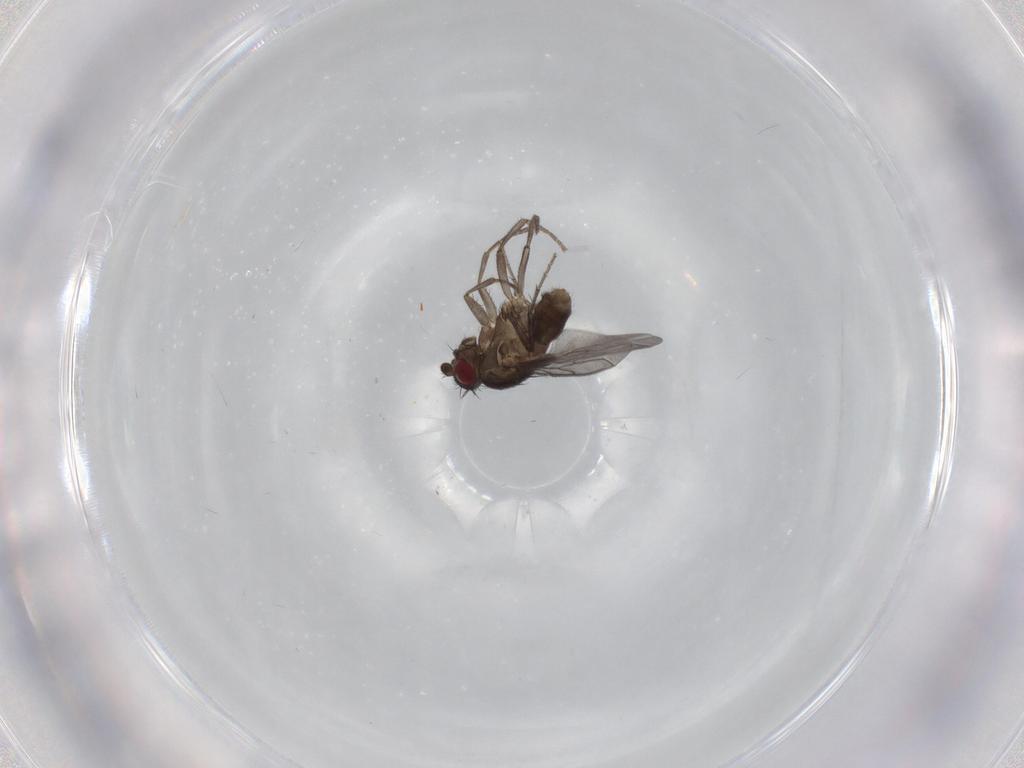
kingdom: Animalia
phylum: Arthropoda
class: Insecta
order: Diptera
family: Sphaeroceridae
